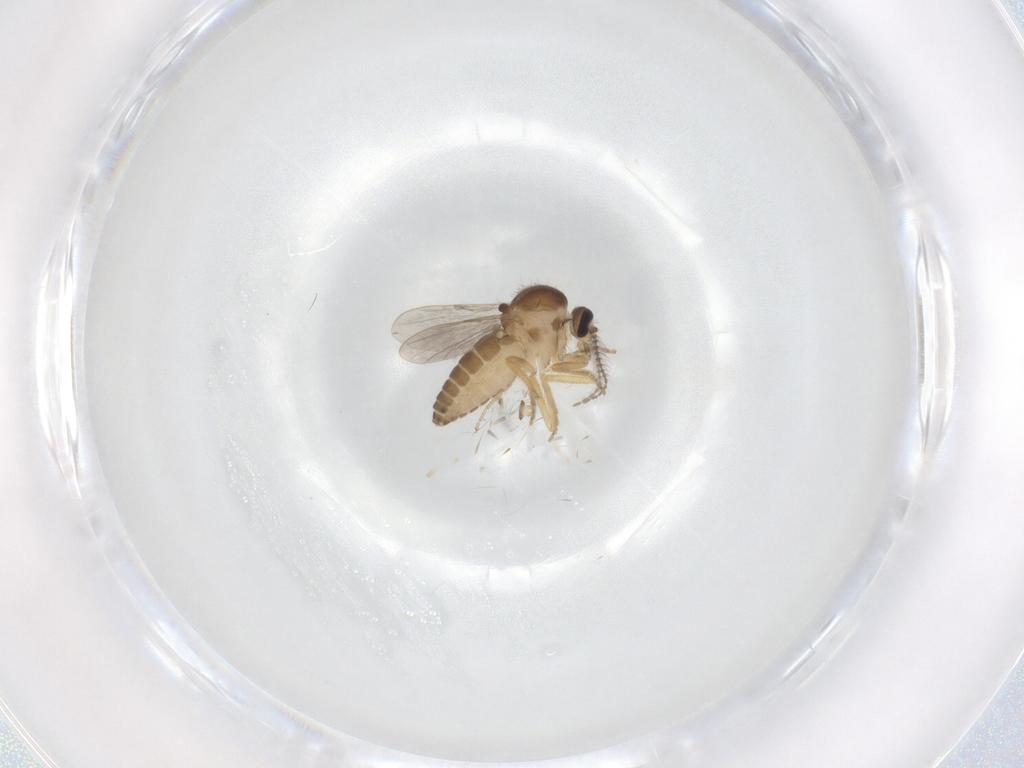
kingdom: Animalia
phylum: Arthropoda
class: Insecta
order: Diptera
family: Ceratopogonidae
